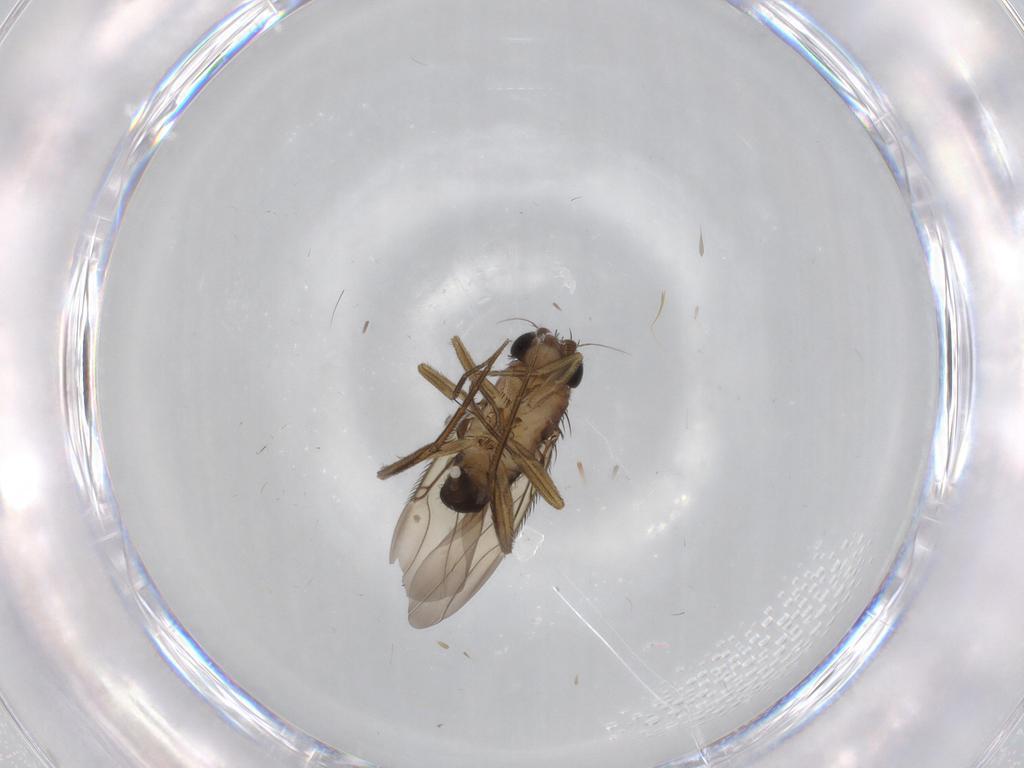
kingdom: Animalia
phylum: Arthropoda
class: Insecta
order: Diptera
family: Phoridae
